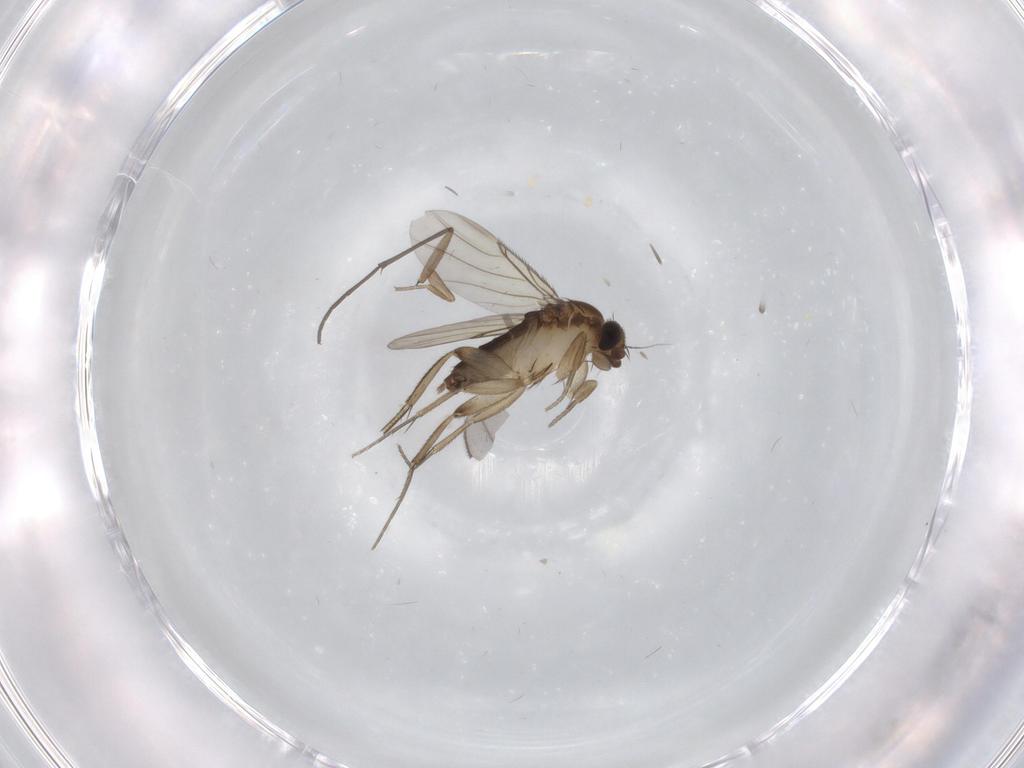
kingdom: Animalia
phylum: Arthropoda
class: Insecta
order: Diptera
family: Phoridae
